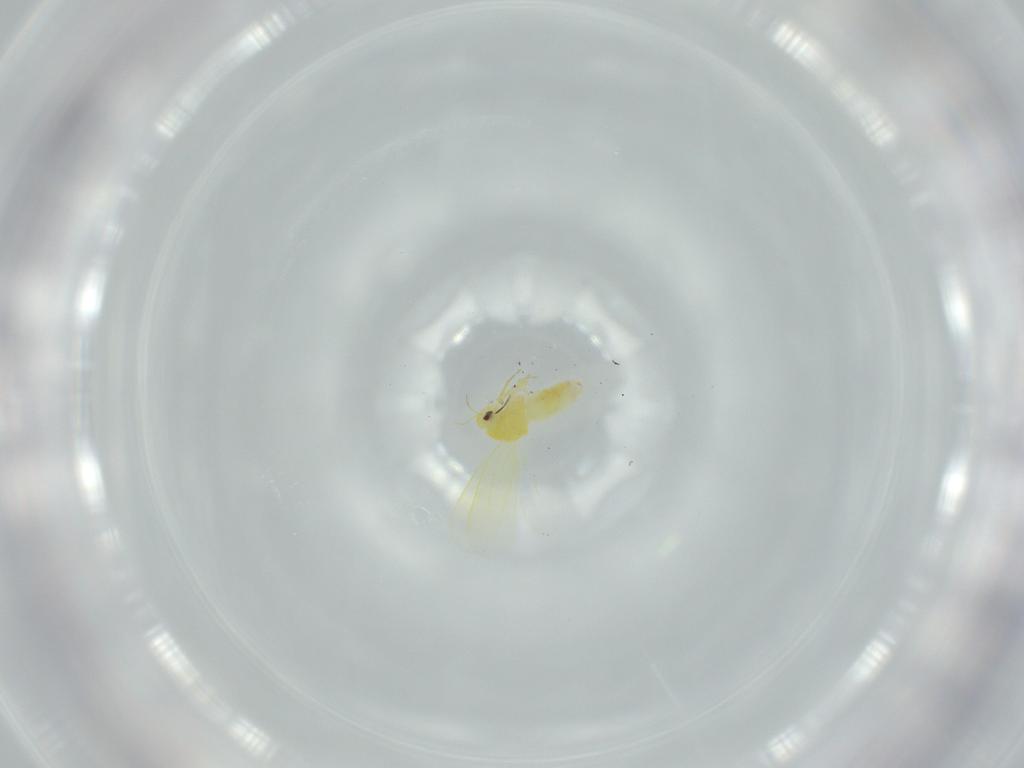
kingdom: Animalia
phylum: Arthropoda
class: Insecta
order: Hemiptera
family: Aleyrodidae
